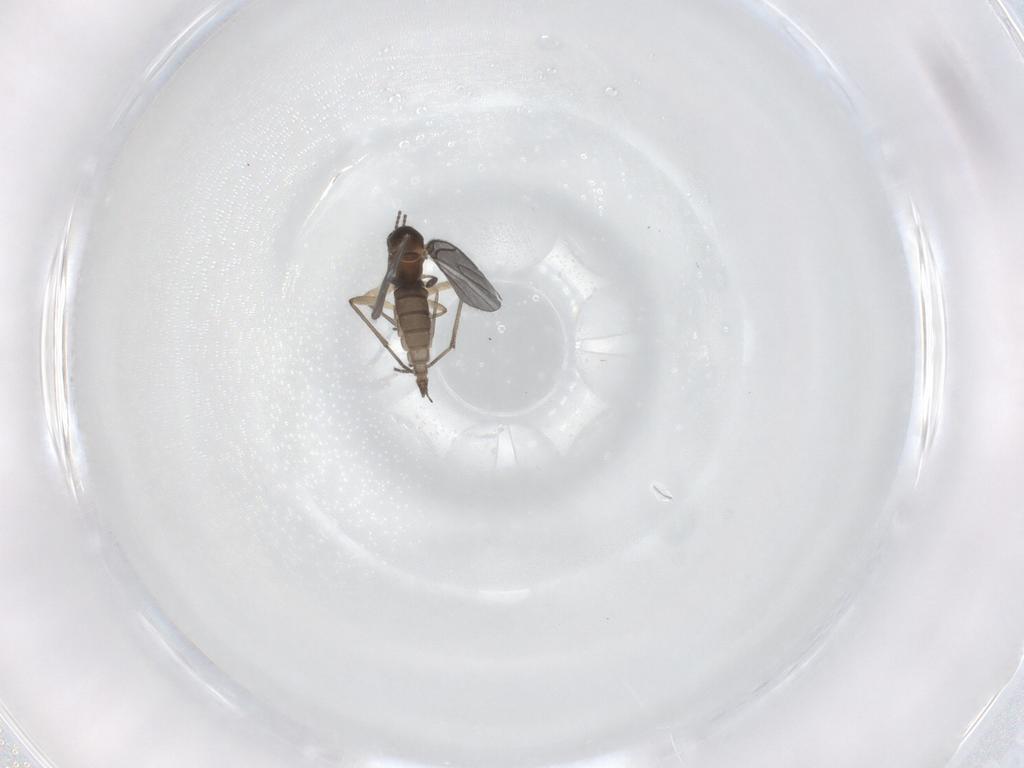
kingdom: Animalia
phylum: Arthropoda
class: Insecta
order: Diptera
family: Sciaridae
